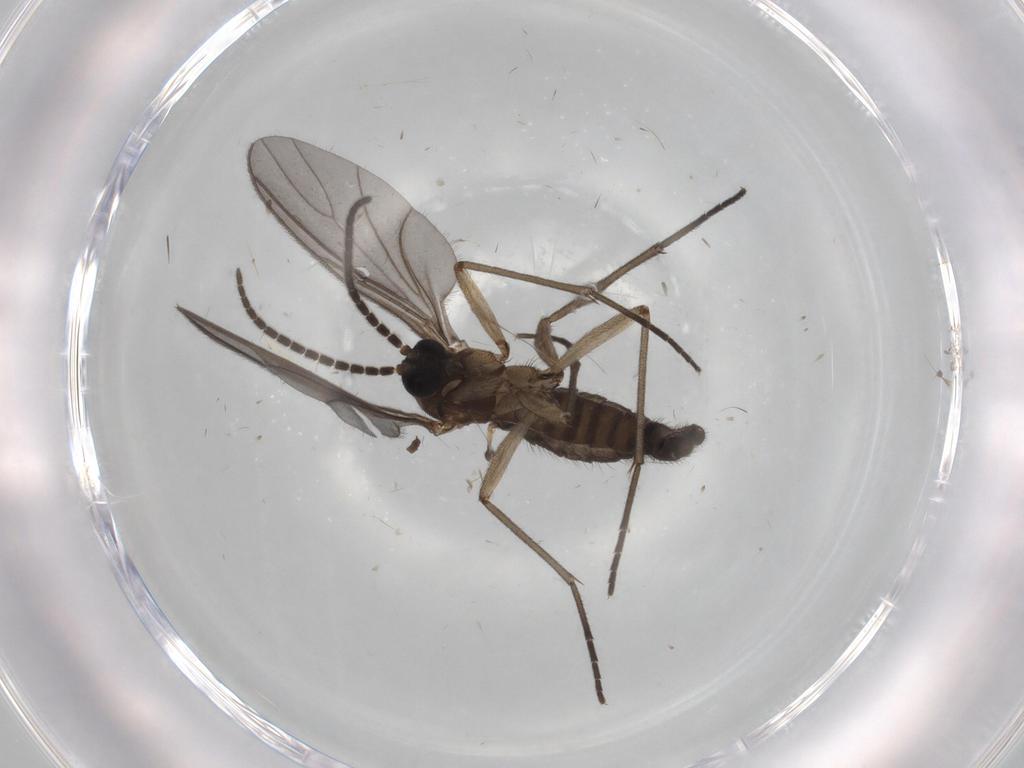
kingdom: Animalia
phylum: Arthropoda
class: Insecta
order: Diptera
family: Sciaridae
